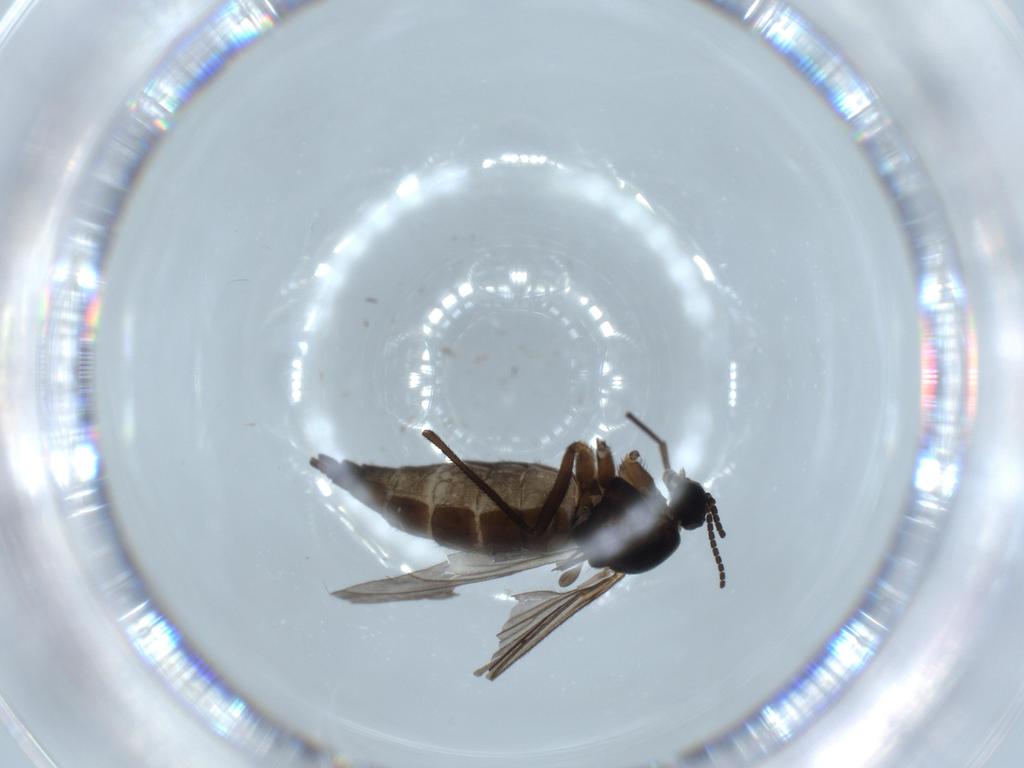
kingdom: Animalia
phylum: Arthropoda
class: Insecta
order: Diptera
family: Sciaridae
